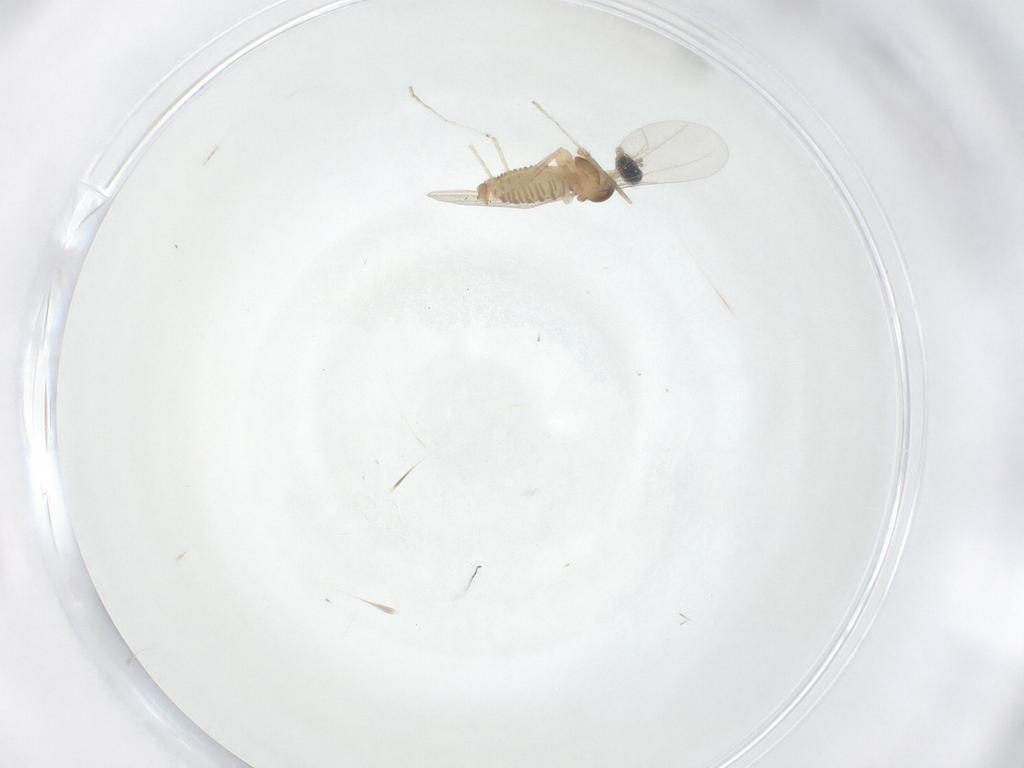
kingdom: Animalia
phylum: Arthropoda
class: Insecta
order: Diptera
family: Cecidomyiidae
